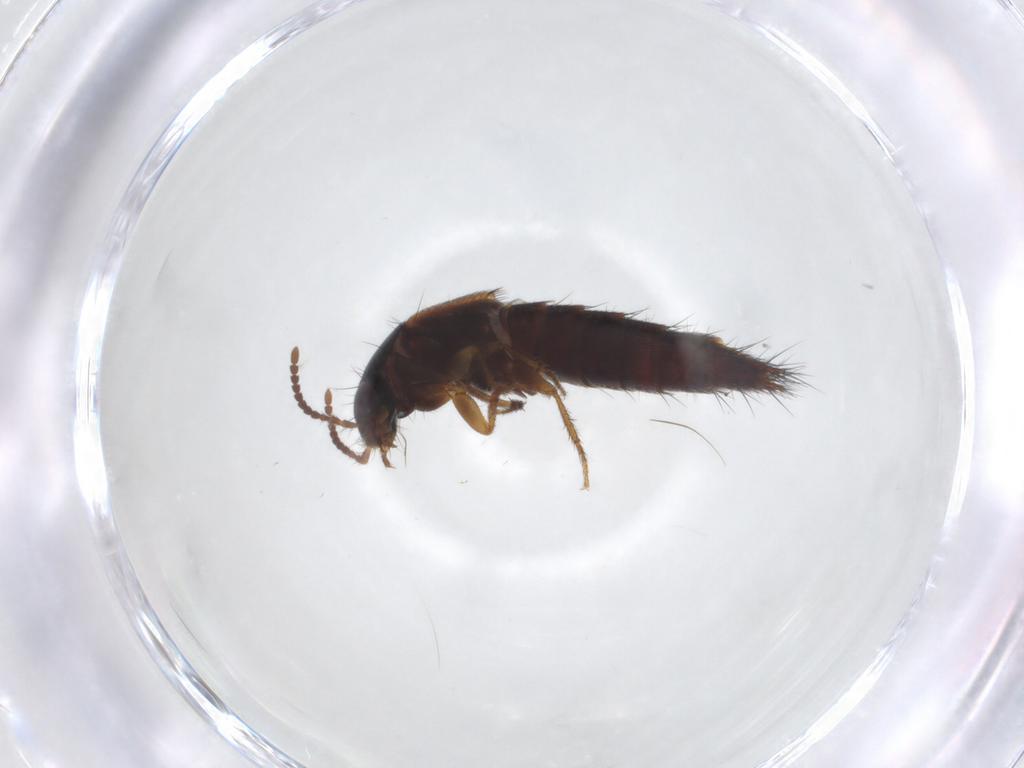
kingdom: Animalia
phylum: Arthropoda
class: Insecta
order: Coleoptera
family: Staphylinidae
